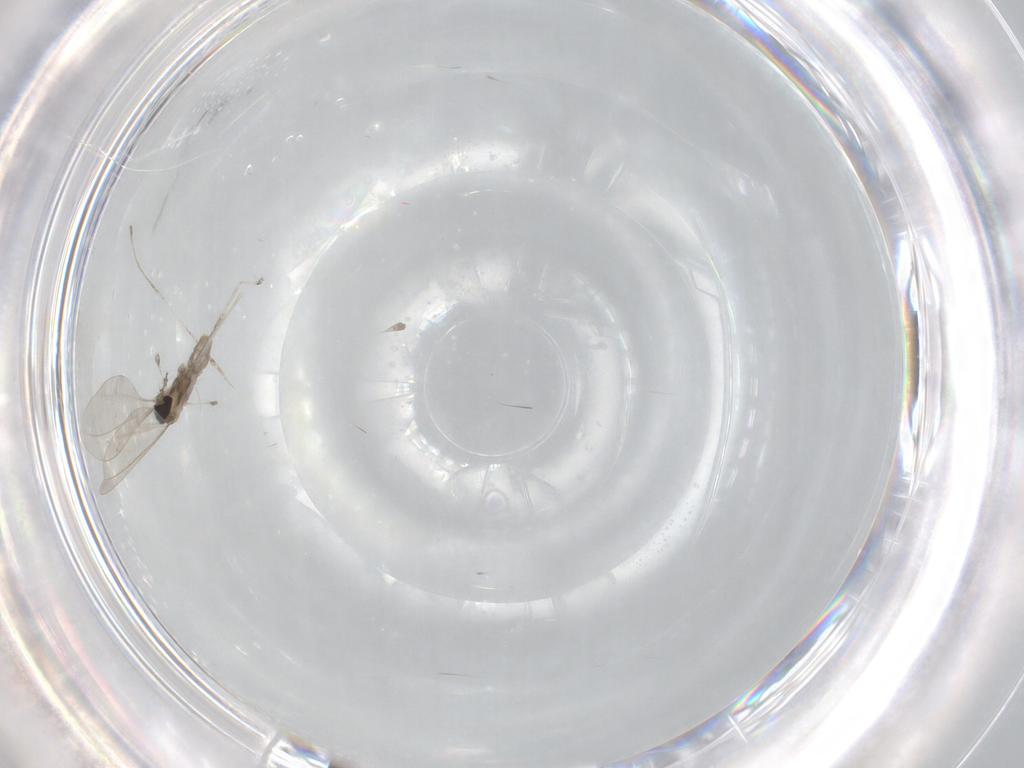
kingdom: Animalia
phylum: Arthropoda
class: Insecta
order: Diptera
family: Cecidomyiidae
